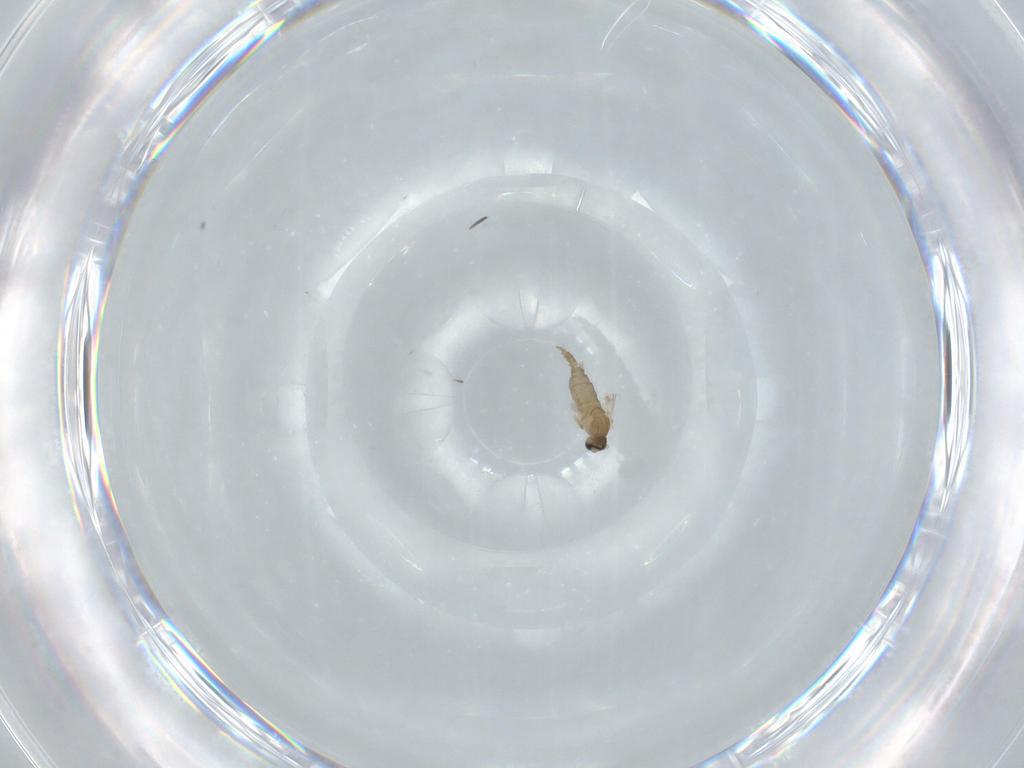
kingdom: Animalia
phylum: Arthropoda
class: Insecta
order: Diptera
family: Cecidomyiidae
